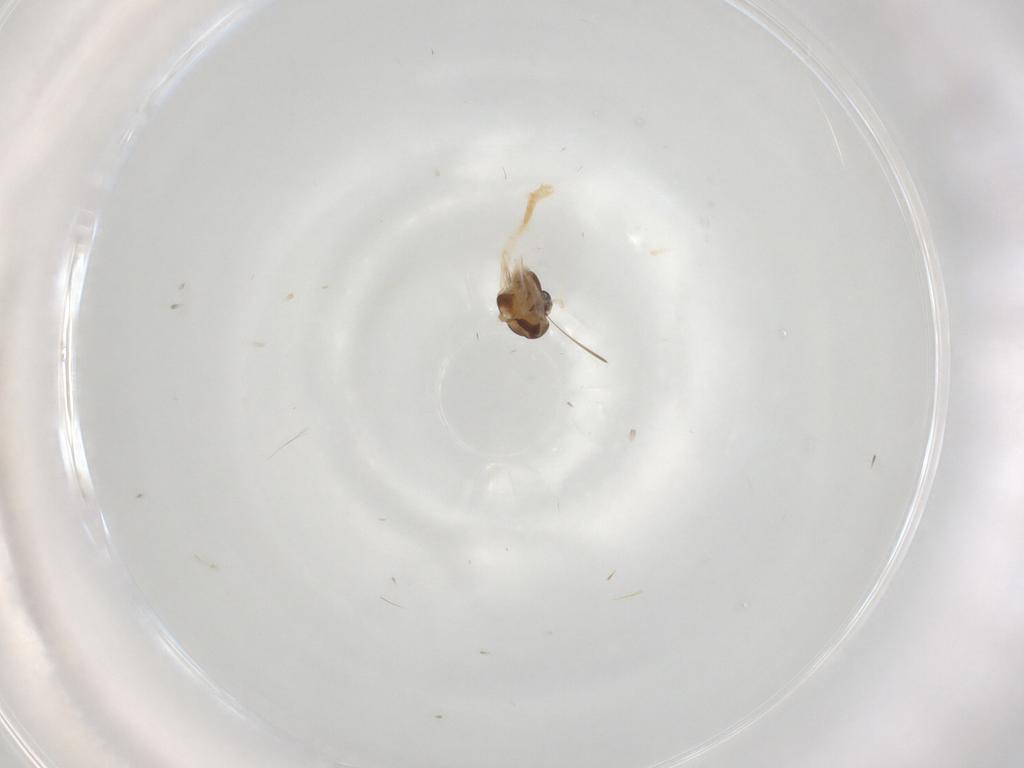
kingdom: Animalia
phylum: Arthropoda
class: Insecta
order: Diptera
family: Chironomidae
